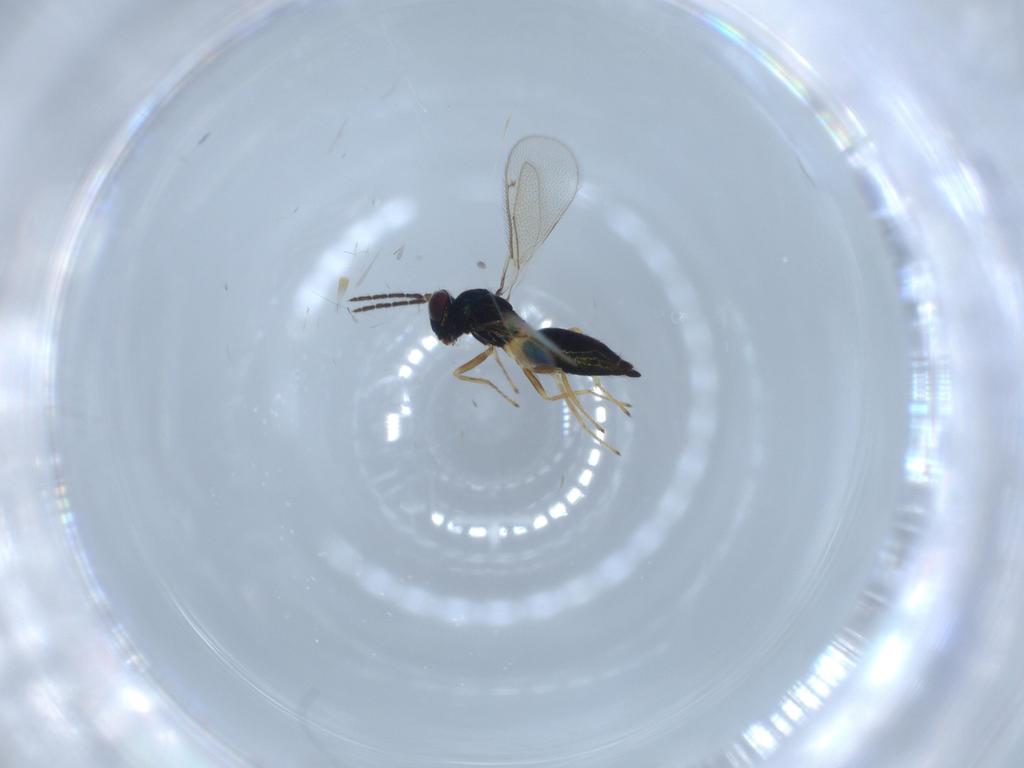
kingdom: Animalia
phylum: Arthropoda
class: Insecta
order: Hymenoptera
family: Eulophidae
